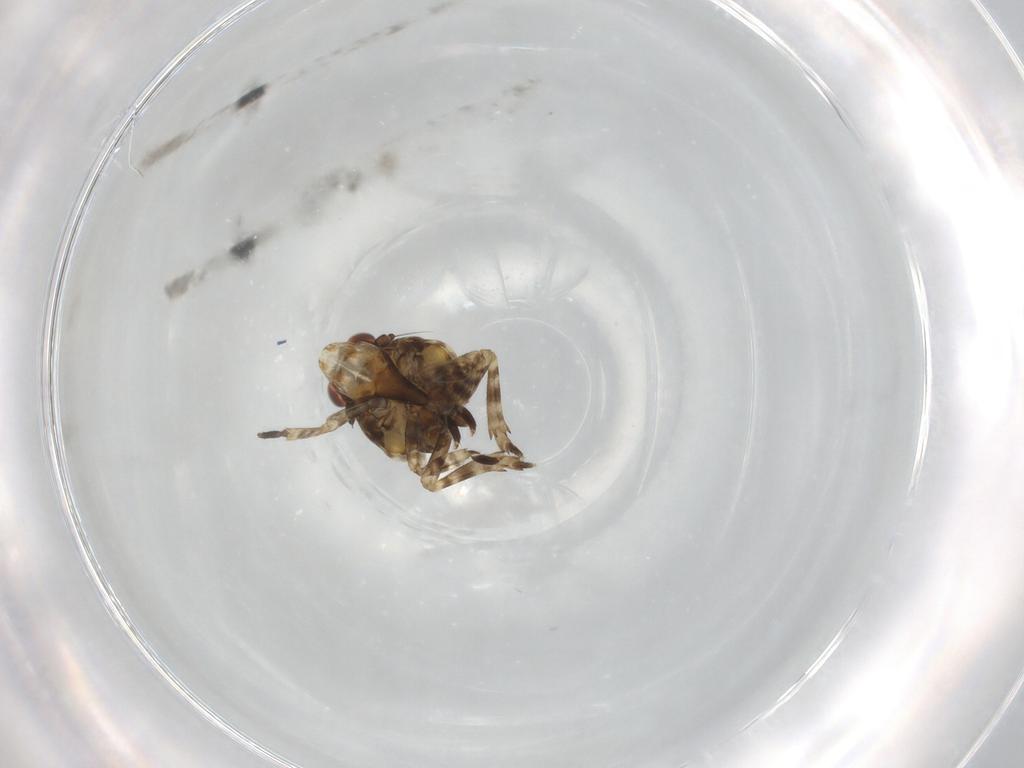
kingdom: Animalia
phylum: Arthropoda
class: Insecta
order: Hemiptera
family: Eurybrachidae
